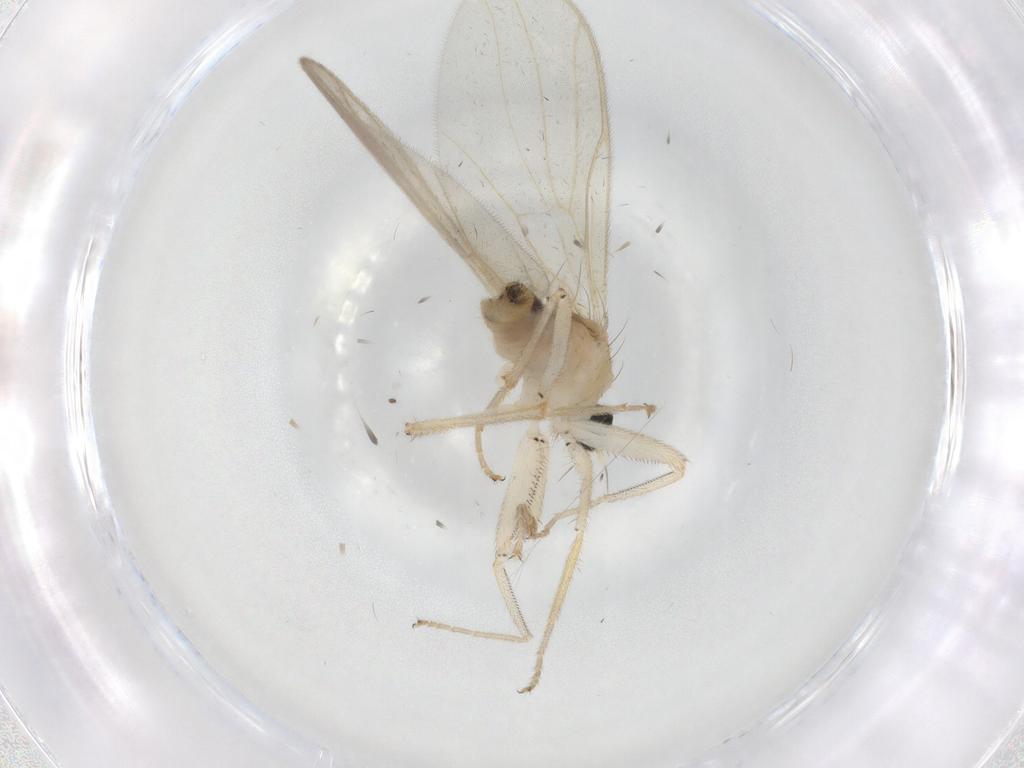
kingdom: Animalia
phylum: Arthropoda
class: Insecta
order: Diptera
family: Hybotidae
